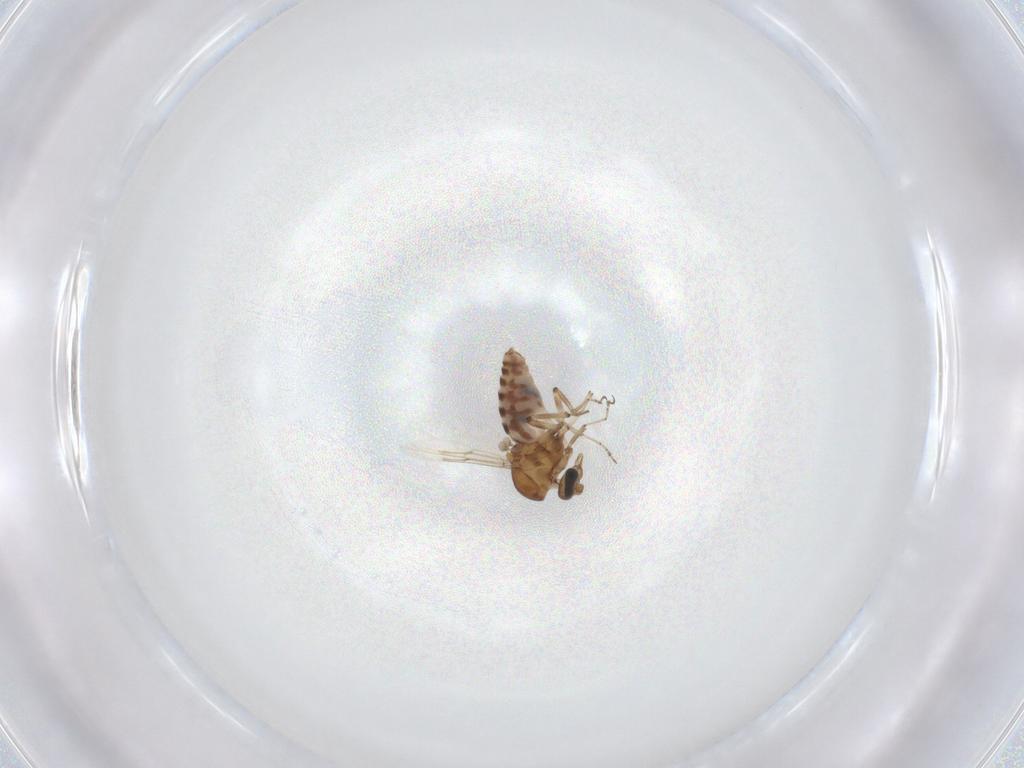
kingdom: Animalia
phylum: Arthropoda
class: Insecta
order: Diptera
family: Ceratopogonidae
